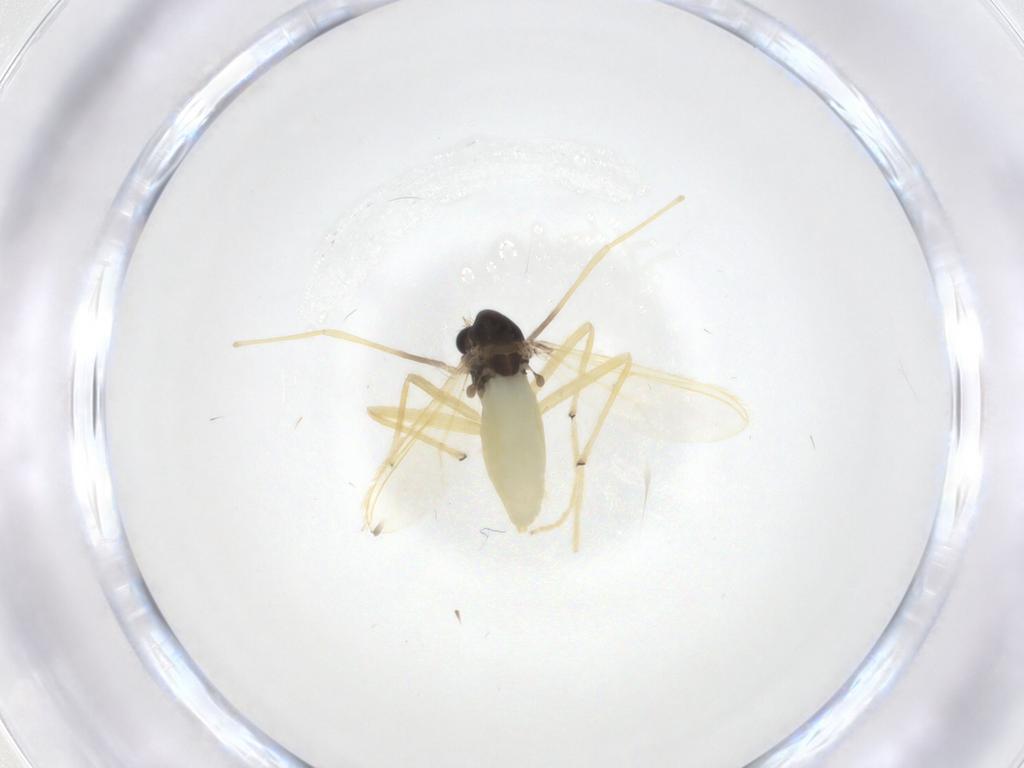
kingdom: Animalia
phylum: Arthropoda
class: Insecta
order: Diptera
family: Chironomidae
